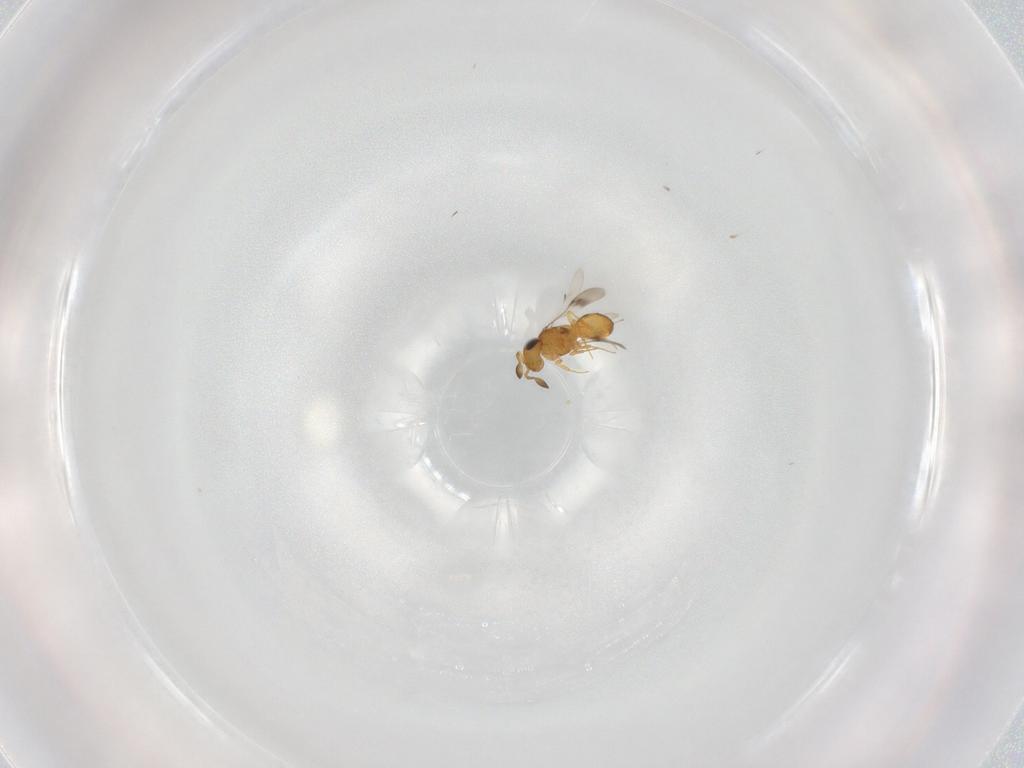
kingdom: Animalia
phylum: Arthropoda
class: Insecta
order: Hymenoptera
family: Scelionidae
